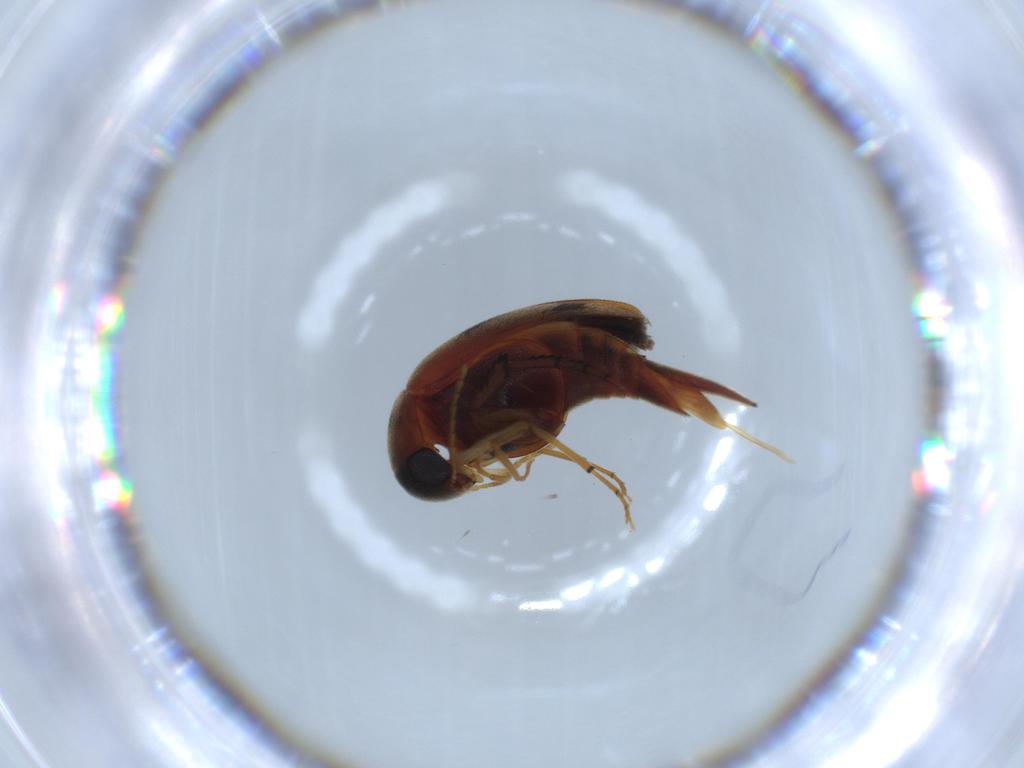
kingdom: Animalia
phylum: Arthropoda
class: Insecta
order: Coleoptera
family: Mordellidae
